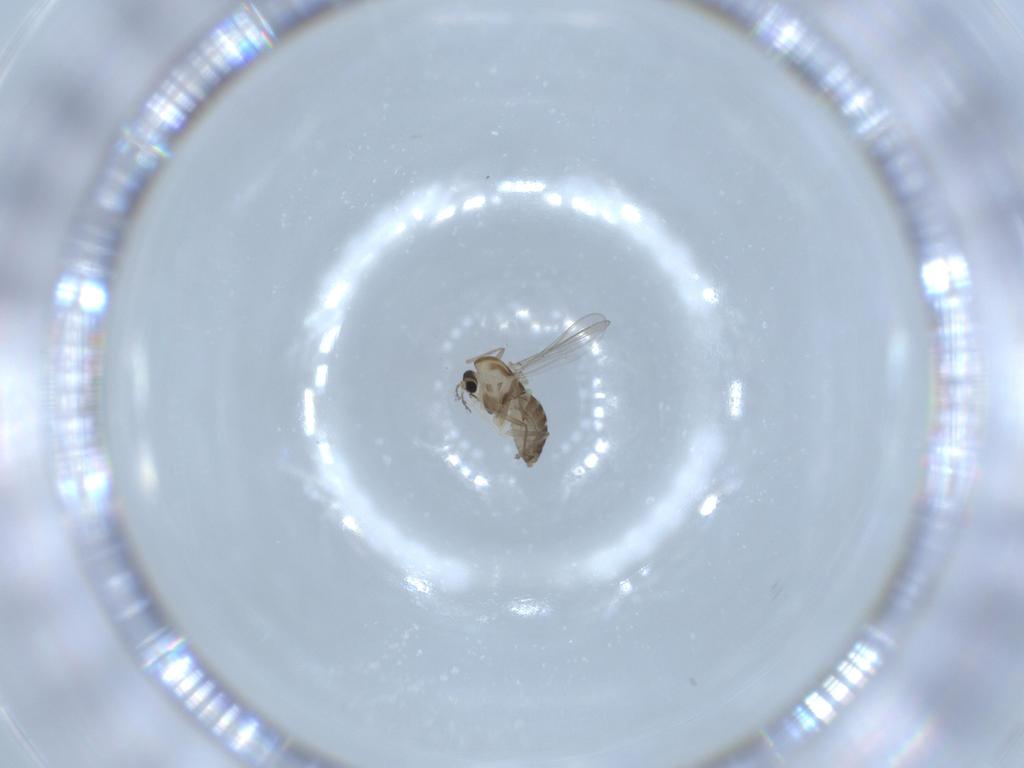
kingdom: Animalia
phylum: Arthropoda
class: Insecta
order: Diptera
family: Chironomidae
